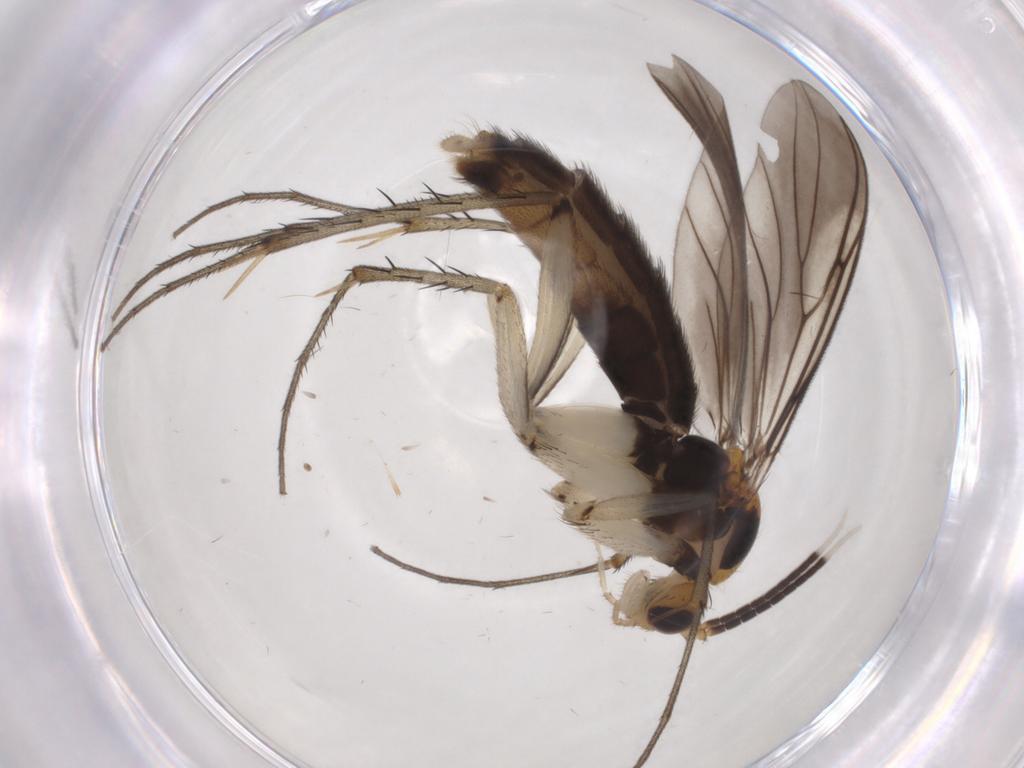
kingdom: Animalia
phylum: Arthropoda
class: Insecta
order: Diptera
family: Mycetophilidae
